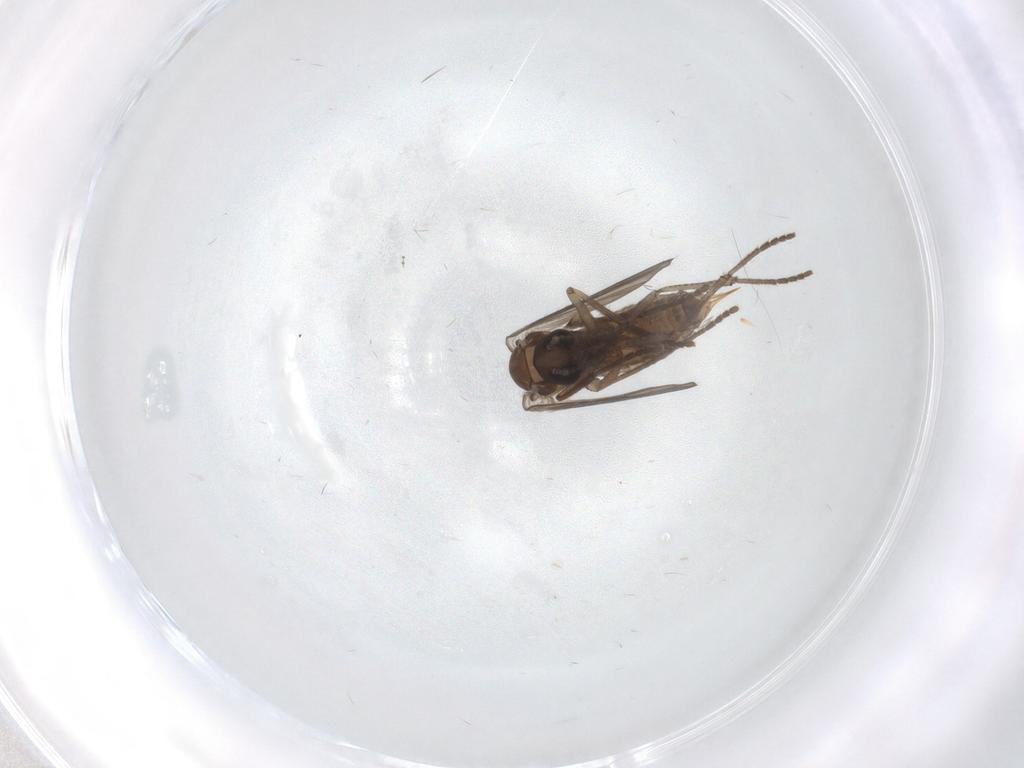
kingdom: Animalia
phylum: Arthropoda
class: Insecta
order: Diptera
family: Psychodidae
